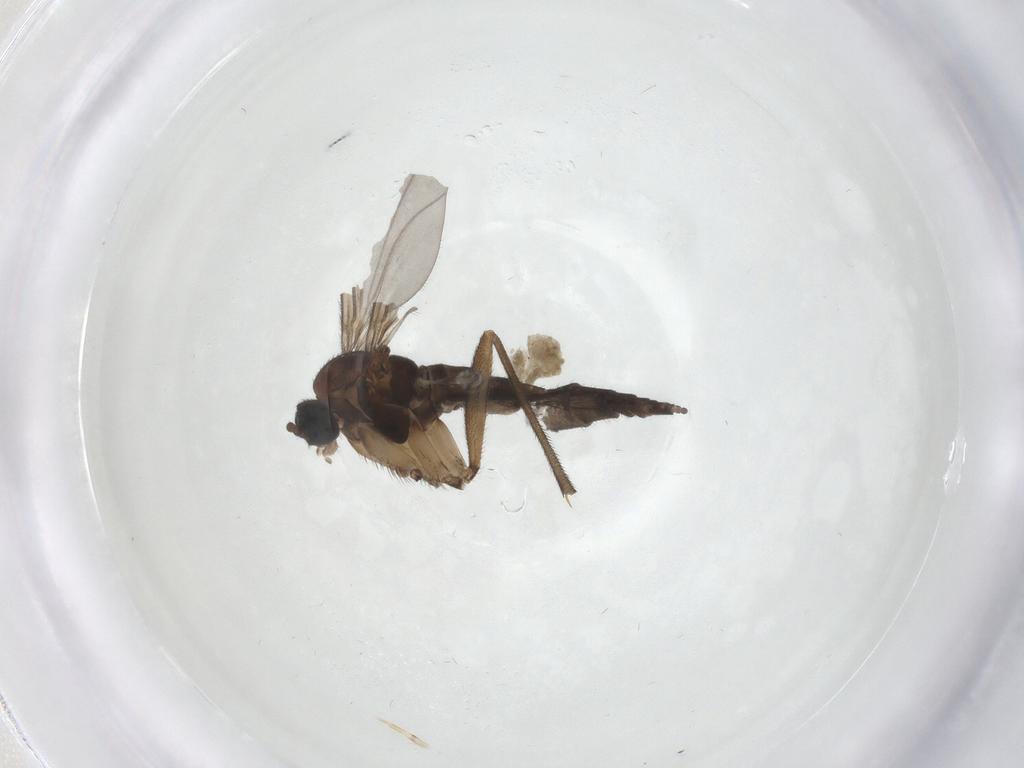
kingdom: Animalia
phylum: Arthropoda
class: Insecta
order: Diptera
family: Sciaridae
